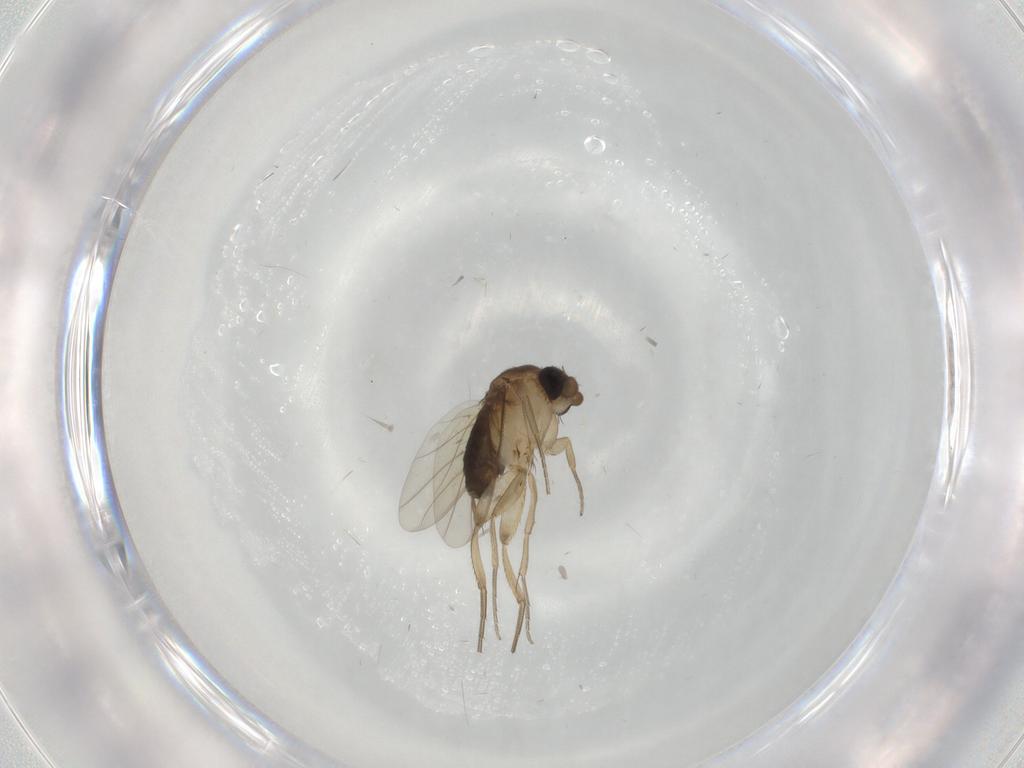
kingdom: Animalia
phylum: Arthropoda
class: Insecta
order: Diptera
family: Phoridae
